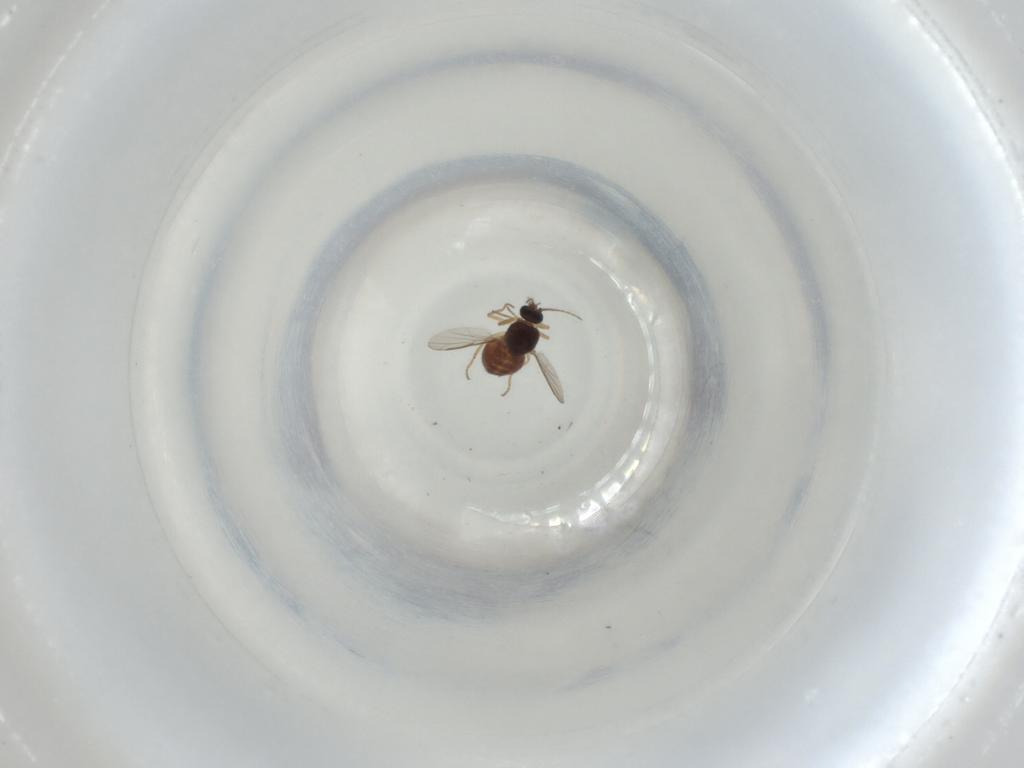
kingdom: Animalia
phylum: Arthropoda
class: Insecta
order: Diptera
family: Ceratopogonidae
